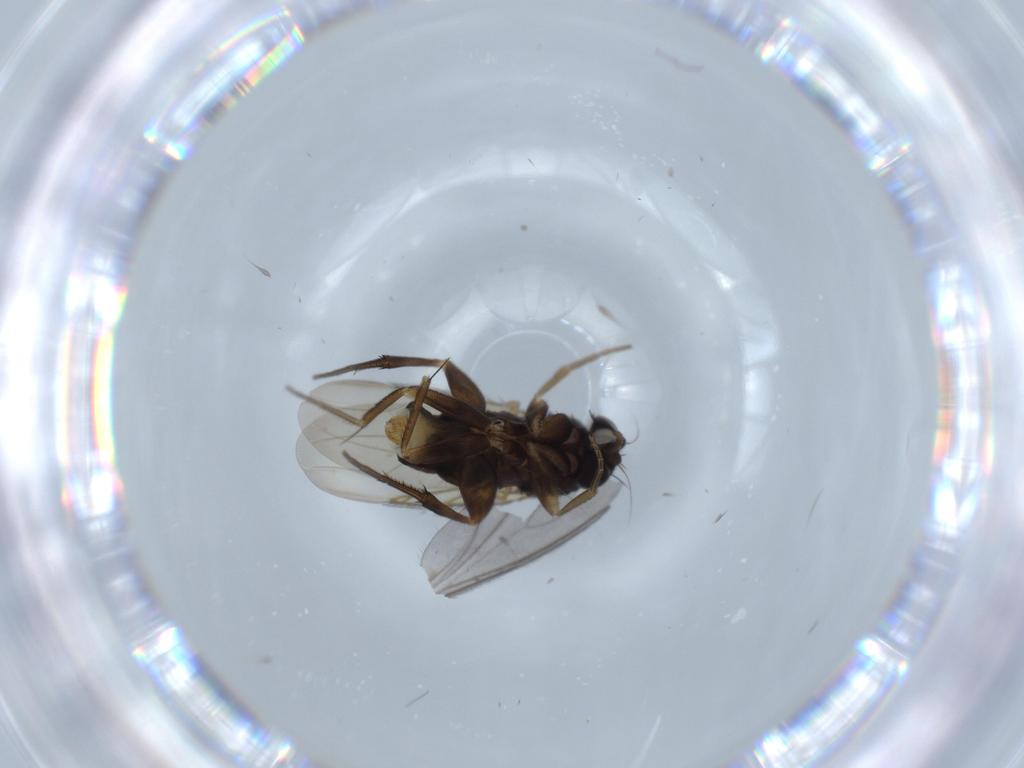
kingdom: Animalia
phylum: Arthropoda
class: Insecta
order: Diptera
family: Phoridae
